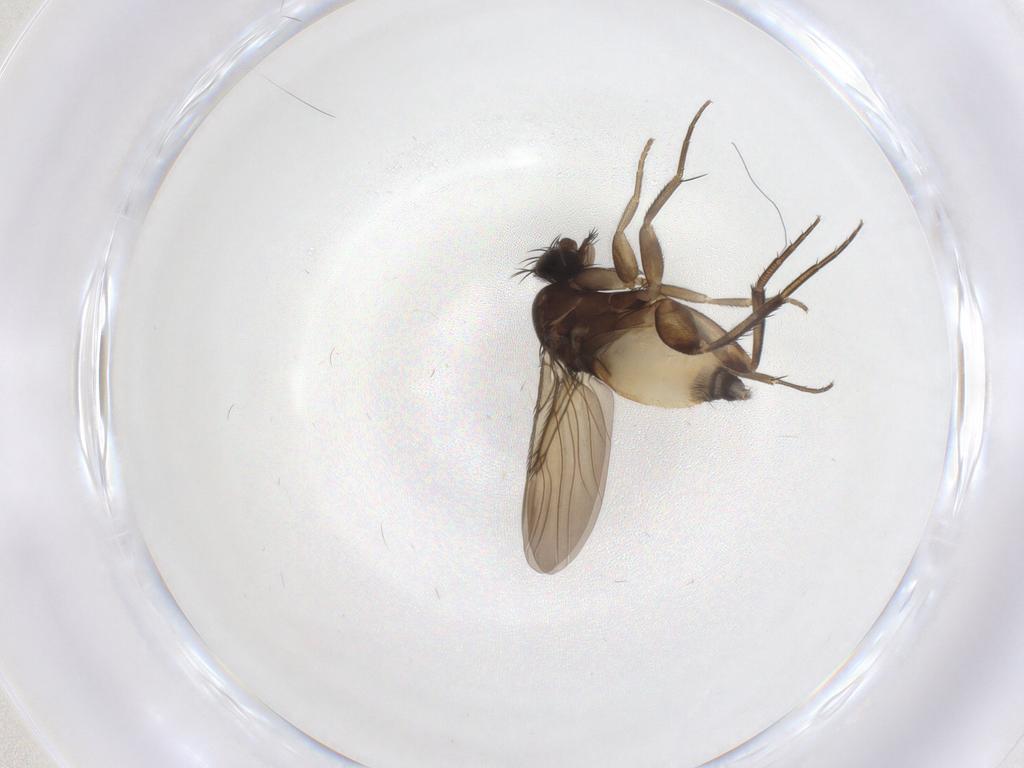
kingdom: Animalia
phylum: Arthropoda
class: Insecta
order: Diptera
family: Phoridae
